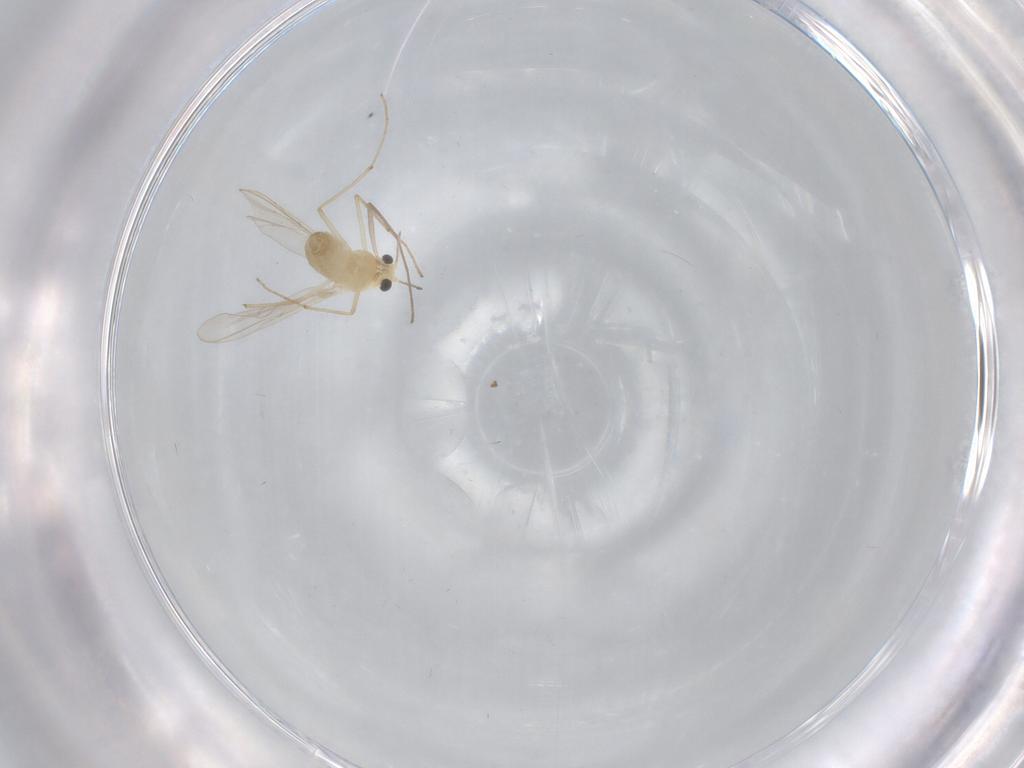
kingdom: Animalia
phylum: Arthropoda
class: Insecta
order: Diptera
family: Chironomidae
